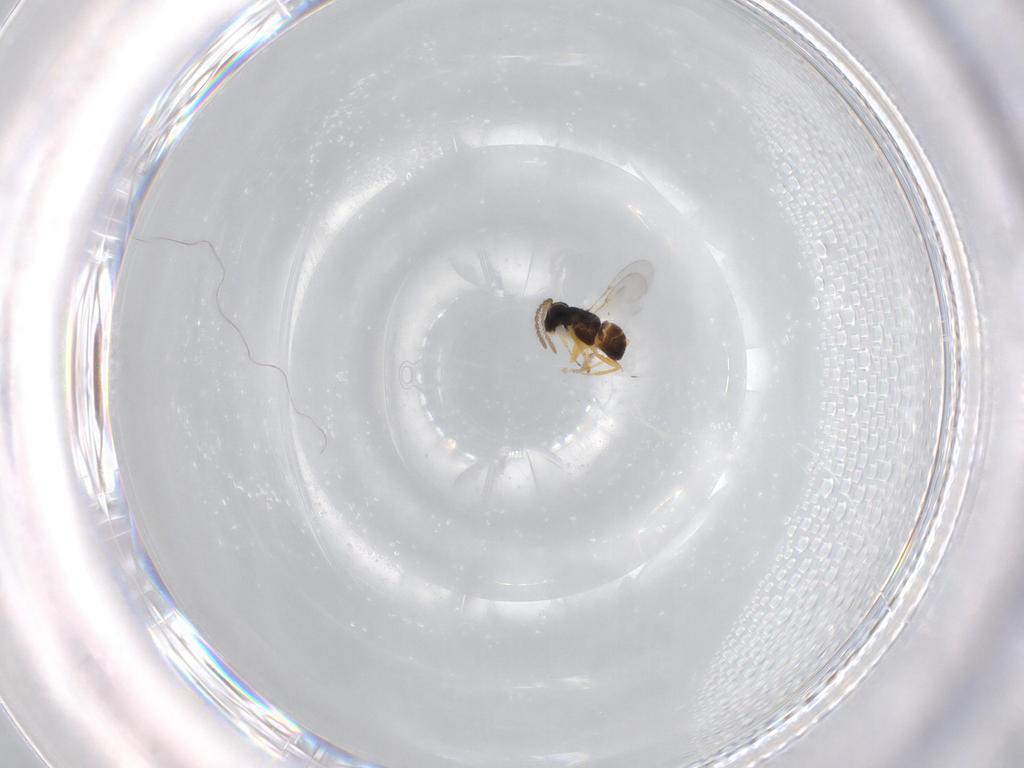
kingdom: Animalia
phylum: Arthropoda
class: Insecta
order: Hymenoptera
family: Encyrtidae
